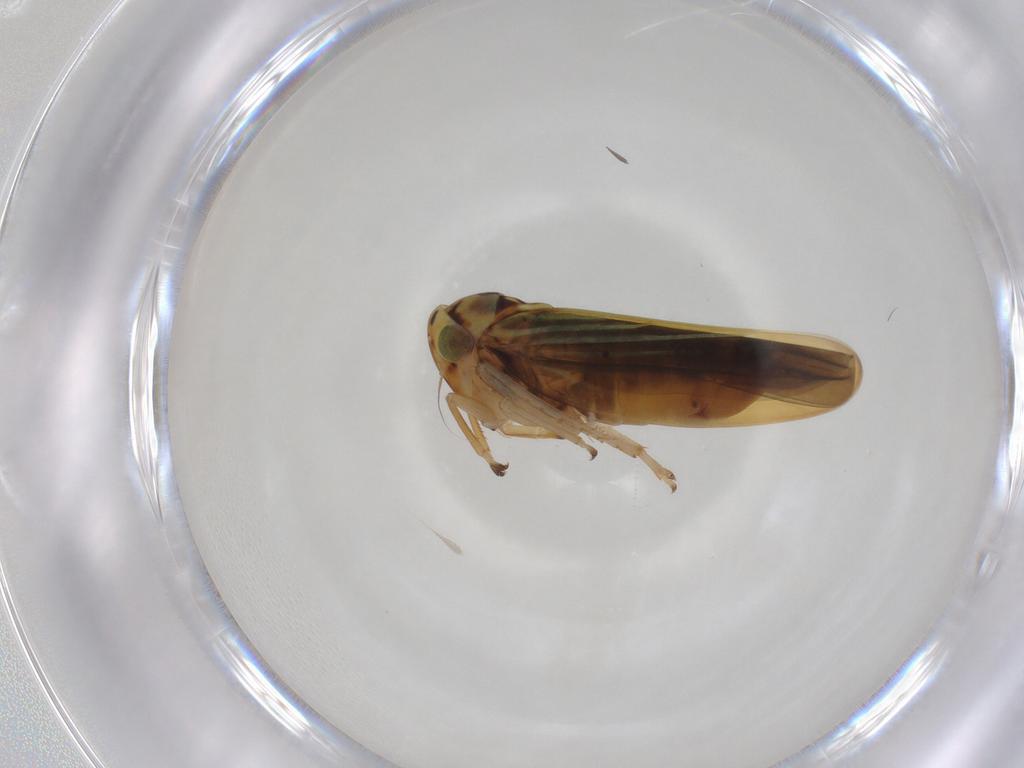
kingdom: Animalia
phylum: Arthropoda
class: Insecta
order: Hemiptera
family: Cicadellidae
